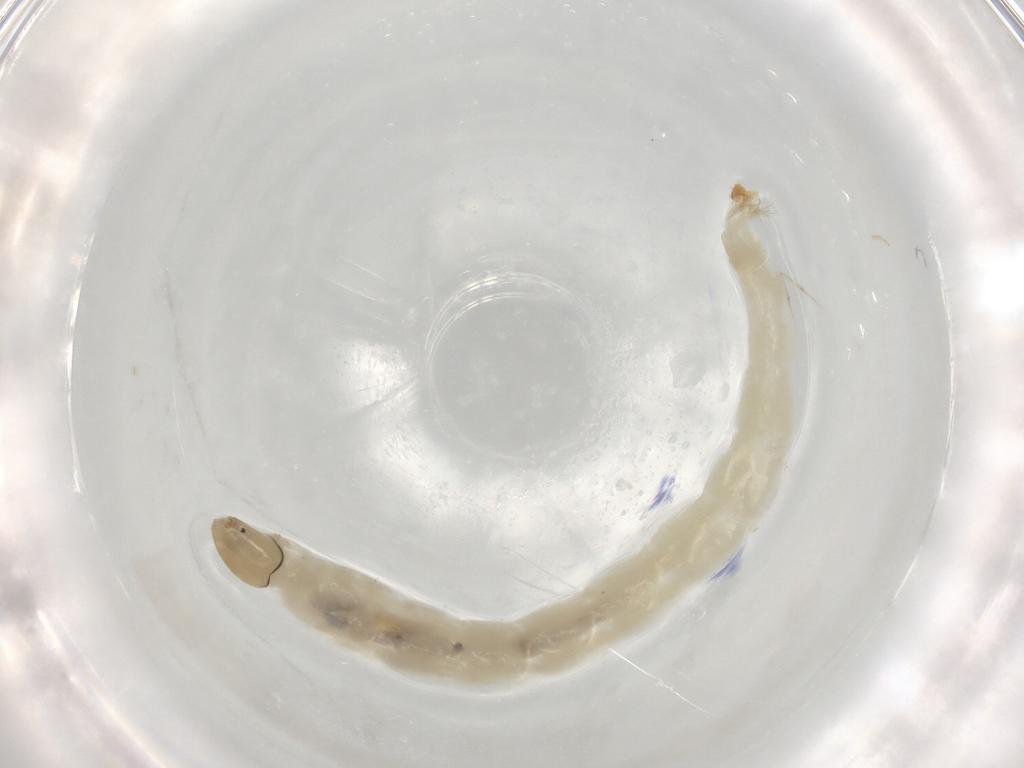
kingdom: Animalia
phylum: Arthropoda
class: Insecta
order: Diptera
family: Chironomidae
